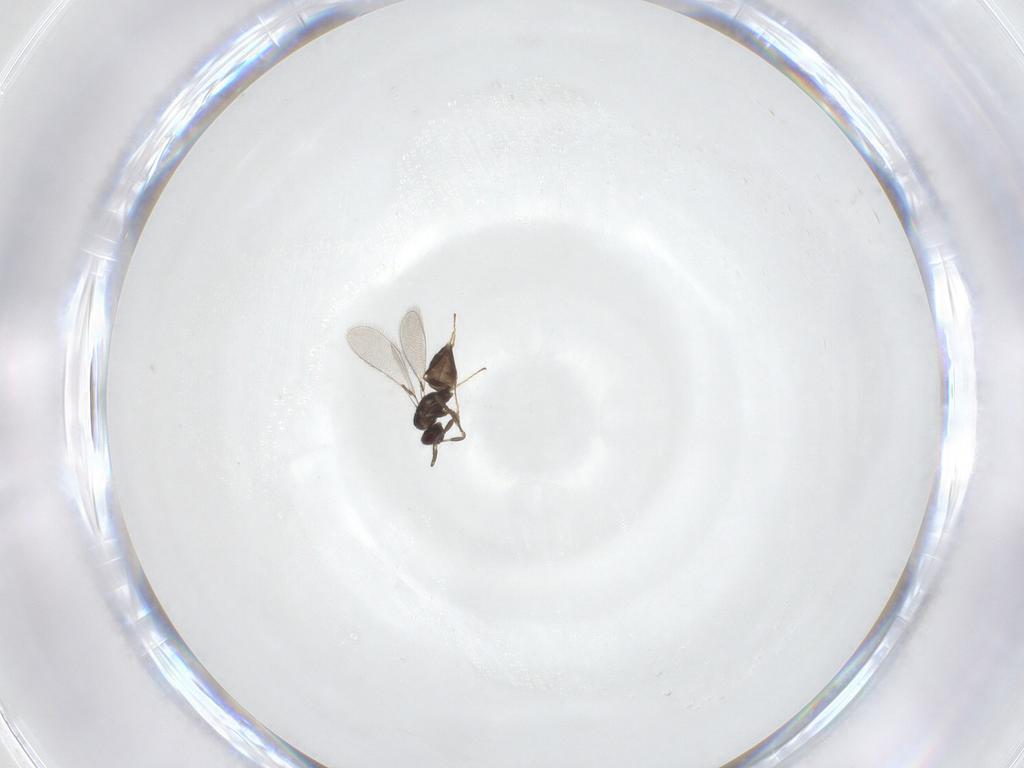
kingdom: Animalia
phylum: Arthropoda
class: Insecta
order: Hymenoptera
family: Mymaridae
